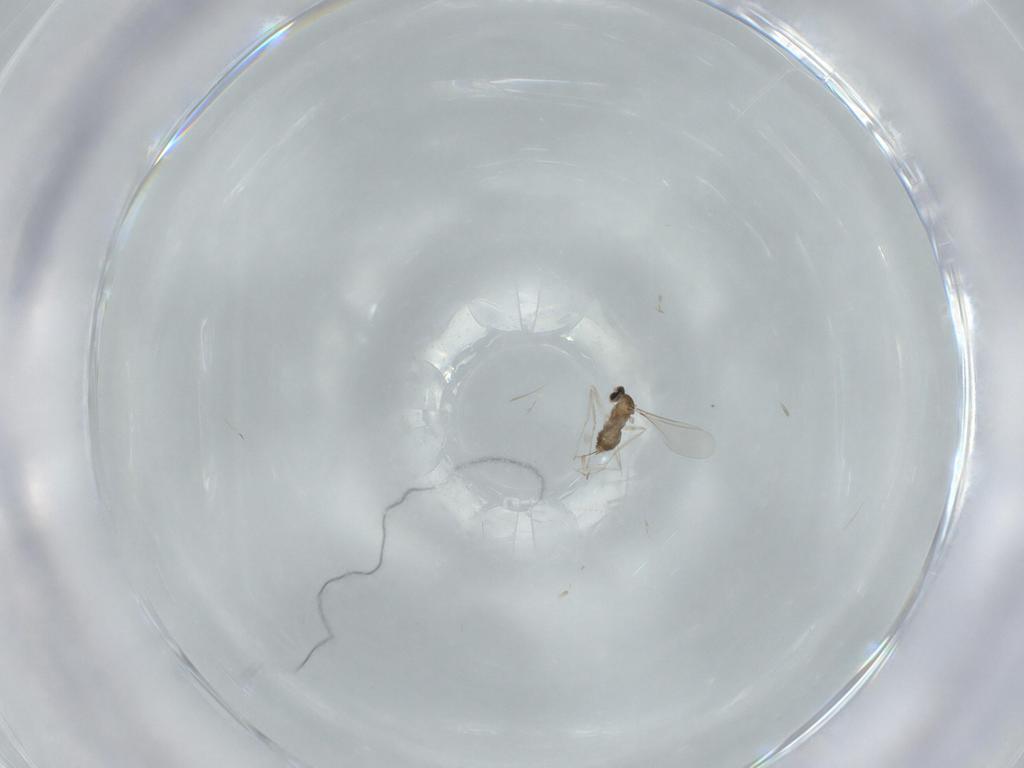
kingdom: Animalia
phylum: Arthropoda
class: Insecta
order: Diptera
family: Cecidomyiidae
